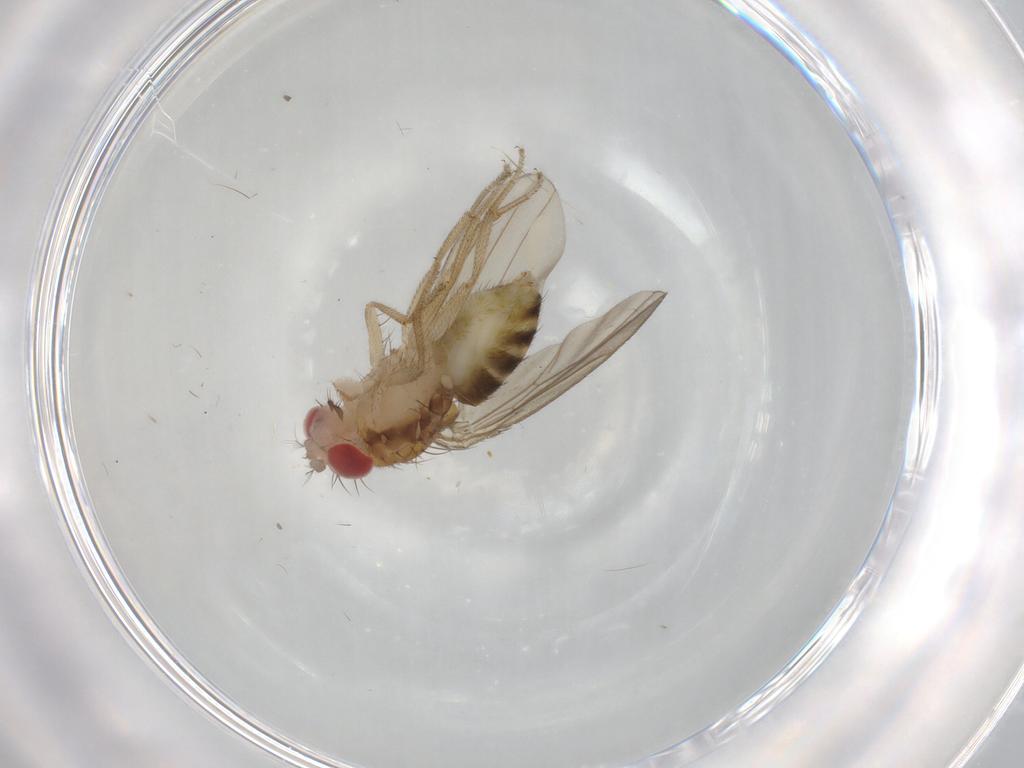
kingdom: Animalia
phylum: Arthropoda
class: Insecta
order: Diptera
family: Drosophilidae
